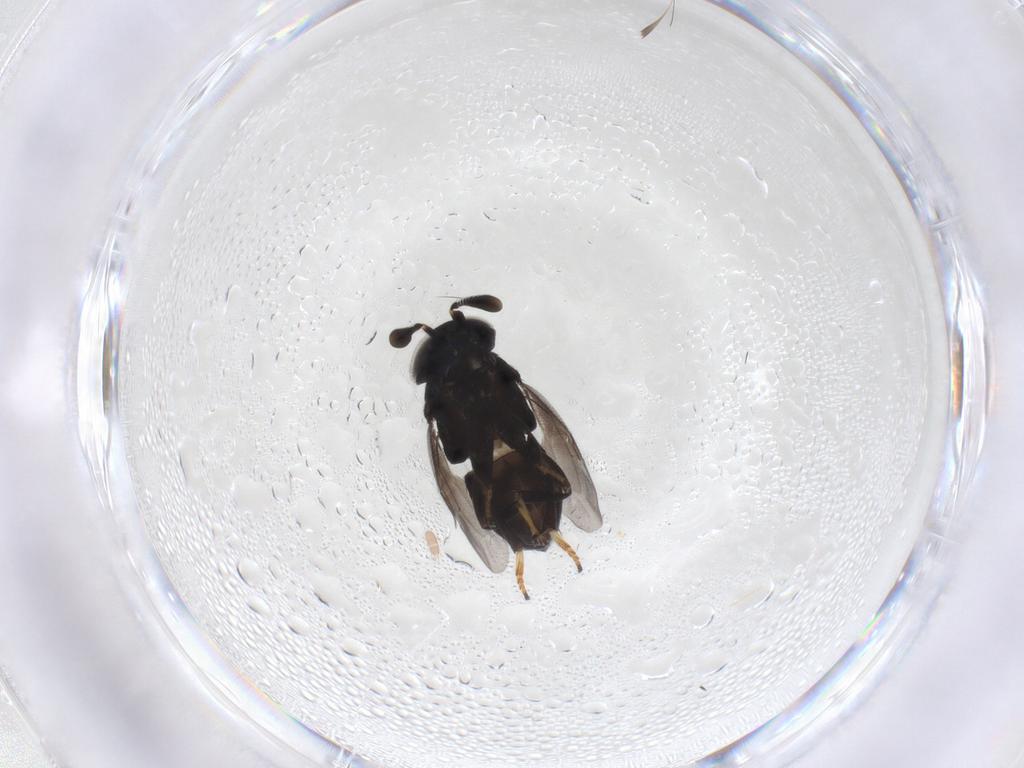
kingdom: Animalia
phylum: Arthropoda
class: Insecta
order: Hymenoptera
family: Encyrtidae
